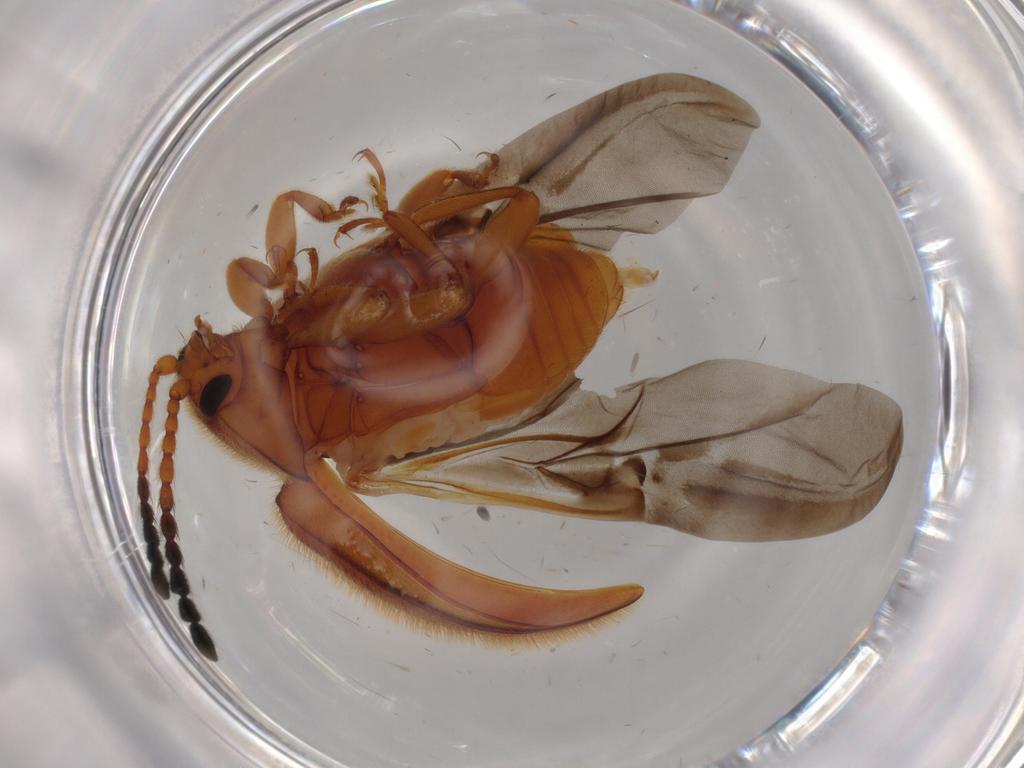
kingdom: Animalia
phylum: Arthropoda
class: Insecta
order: Coleoptera
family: Endomychidae
